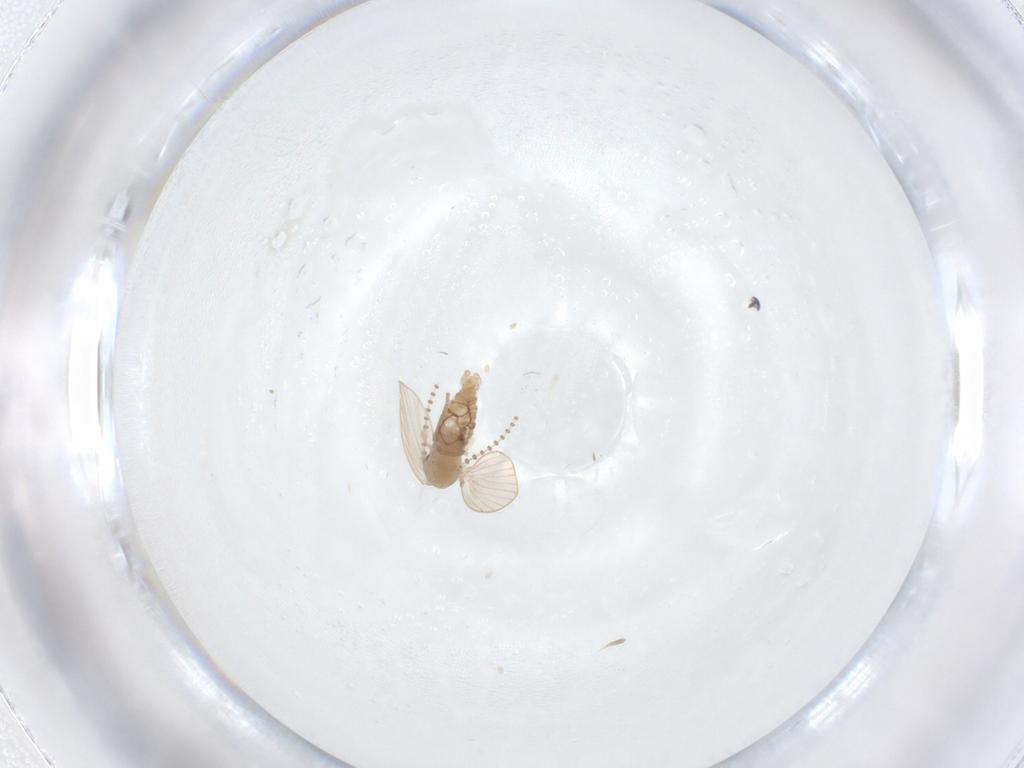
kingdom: Animalia
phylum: Arthropoda
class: Insecta
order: Diptera
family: Psychodidae
